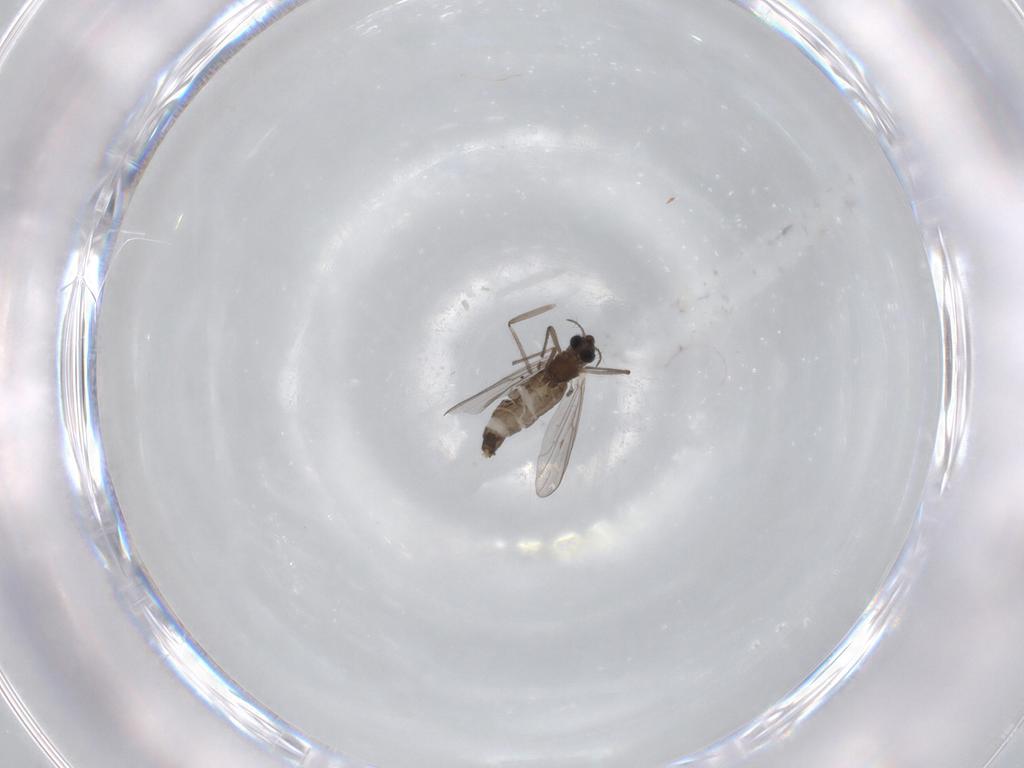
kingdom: Animalia
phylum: Arthropoda
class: Insecta
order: Diptera
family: Chironomidae
